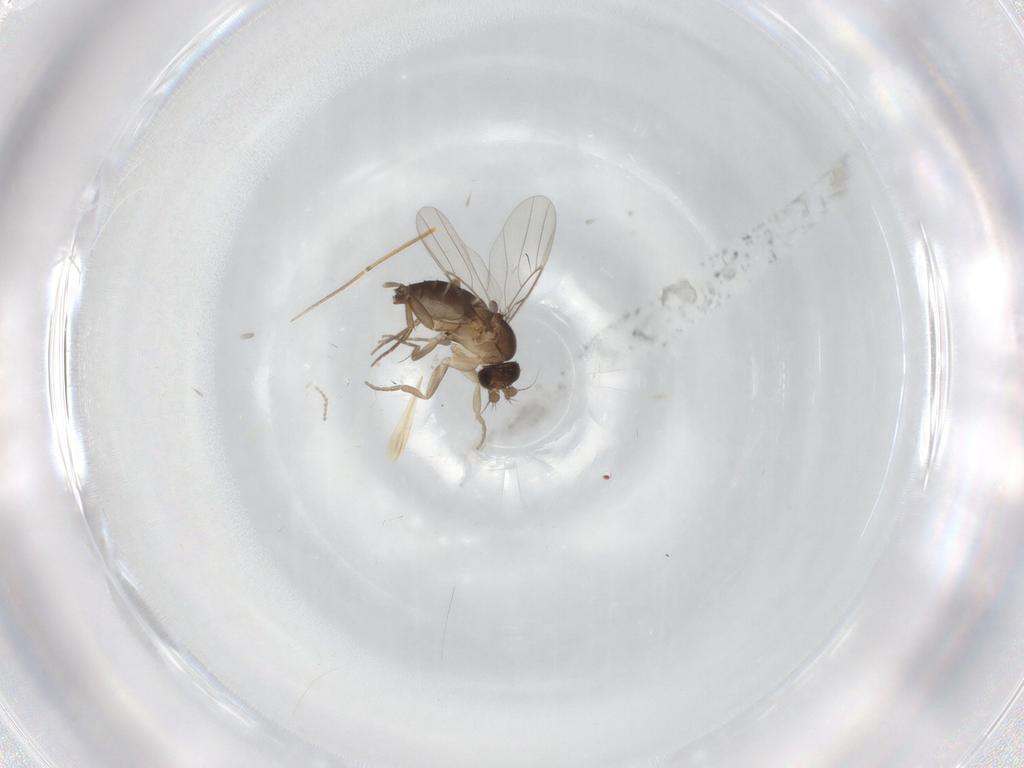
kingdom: Animalia
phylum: Arthropoda
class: Insecta
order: Diptera
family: Phoridae
